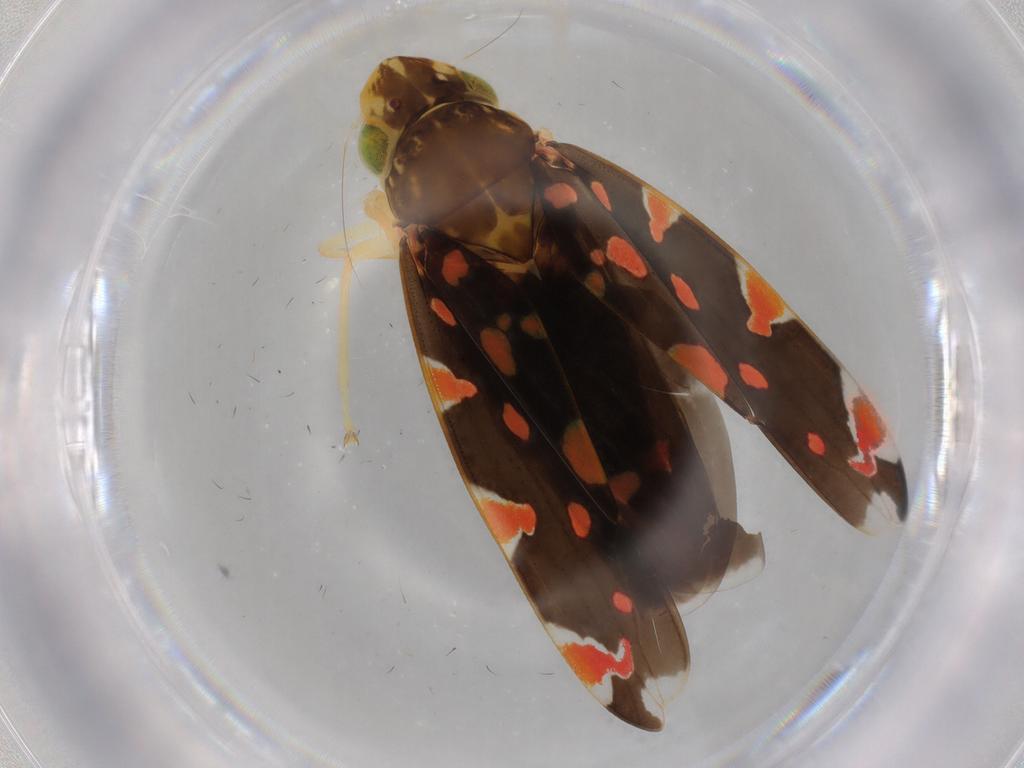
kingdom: Animalia
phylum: Arthropoda
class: Insecta
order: Hemiptera
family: Cicadellidae
